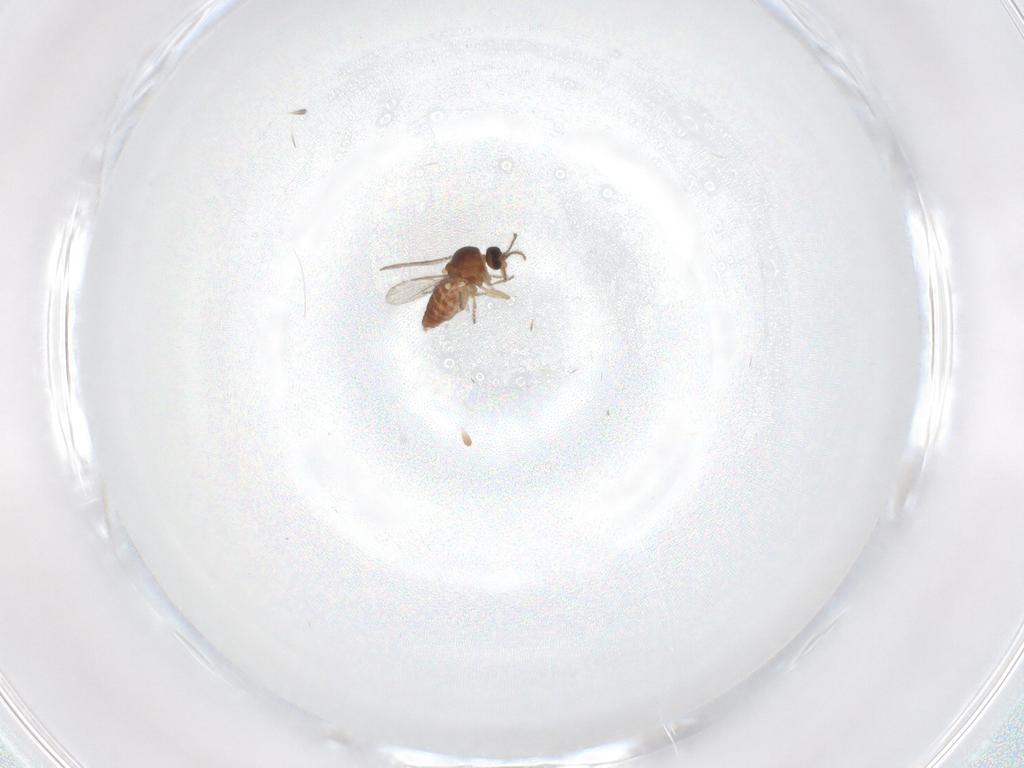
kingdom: Animalia
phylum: Arthropoda
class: Insecta
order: Diptera
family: Ceratopogonidae
